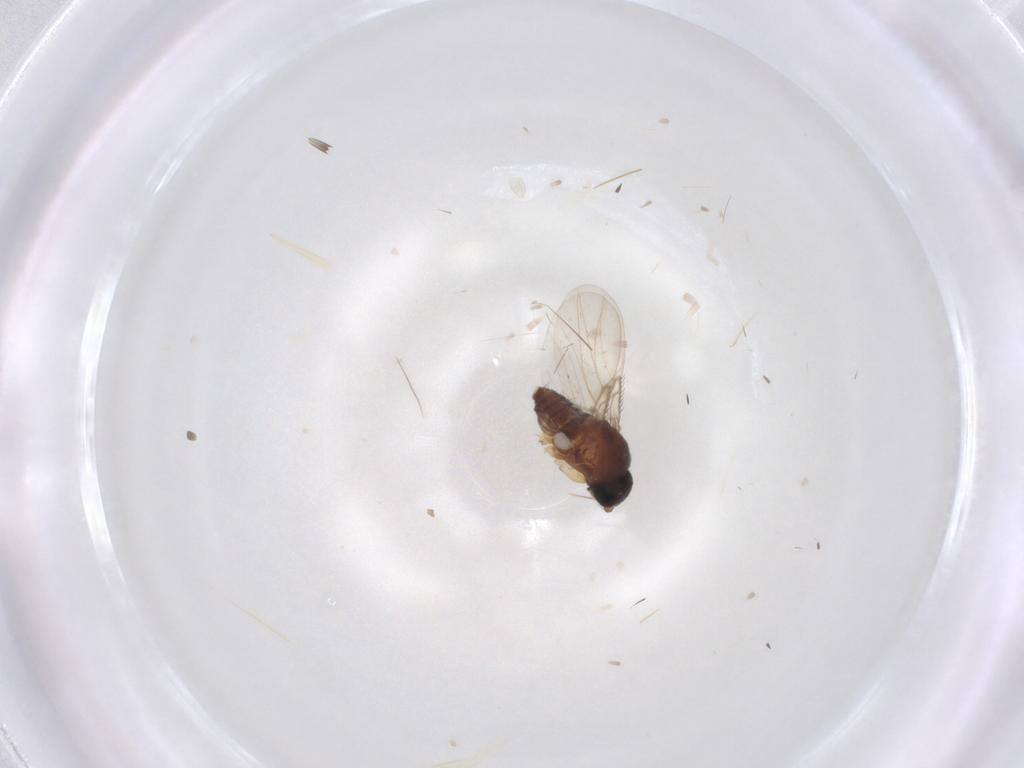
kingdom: Animalia
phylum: Arthropoda
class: Insecta
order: Diptera
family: Phoridae
